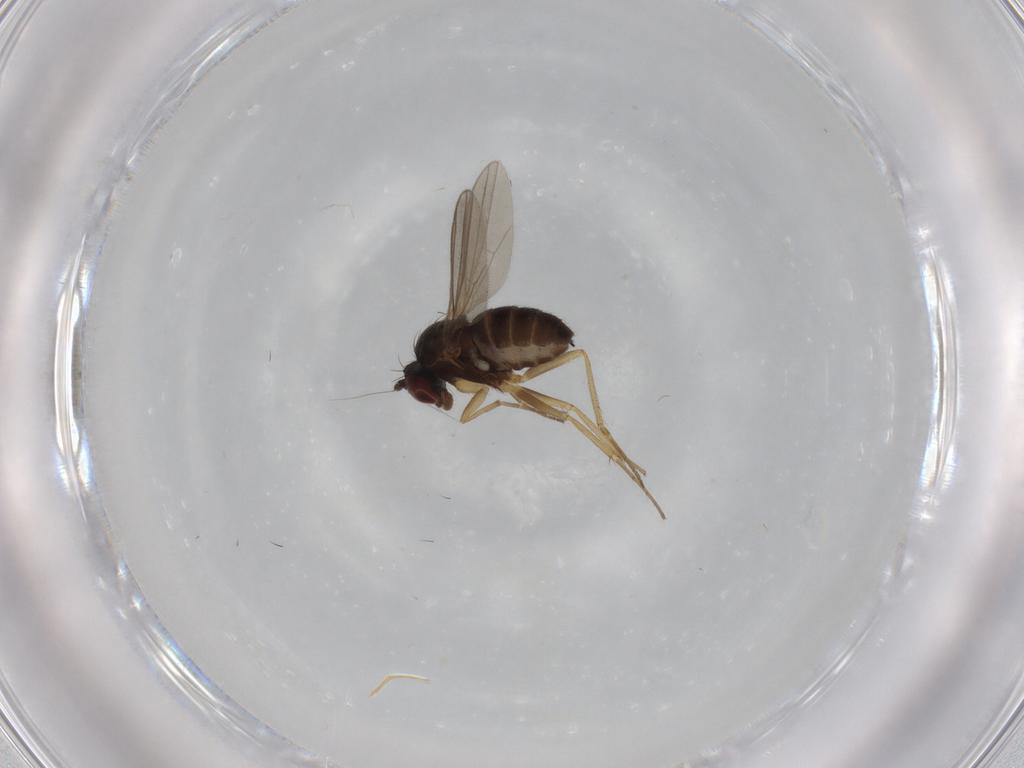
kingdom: Animalia
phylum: Arthropoda
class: Insecta
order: Diptera
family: Dolichopodidae
